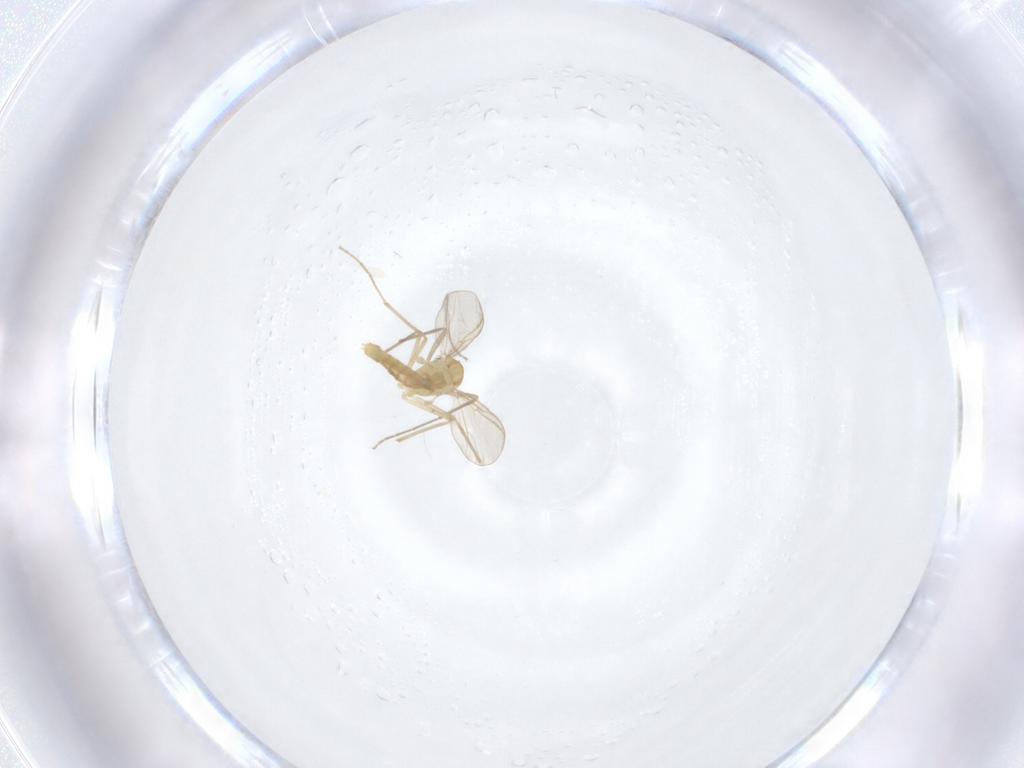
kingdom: Animalia
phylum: Arthropoda
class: Insecta
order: Diptera
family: Chironomidae
